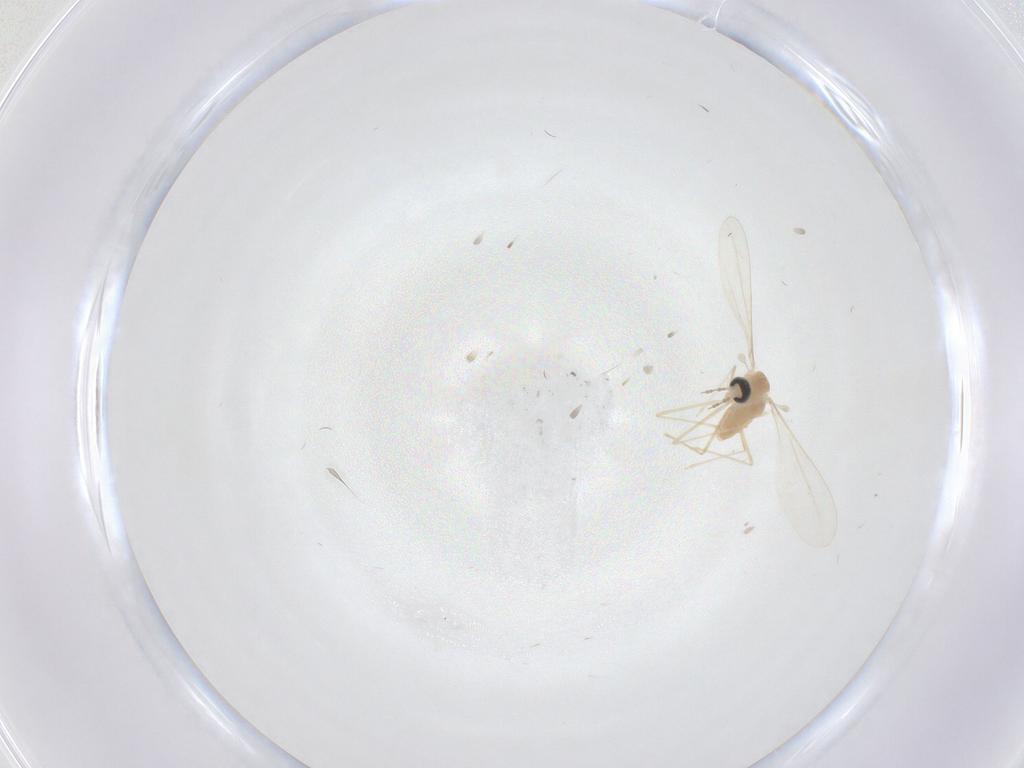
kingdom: Animalia
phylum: Arthropoda
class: Insecta
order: Diptera
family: Cecidomyiidae
